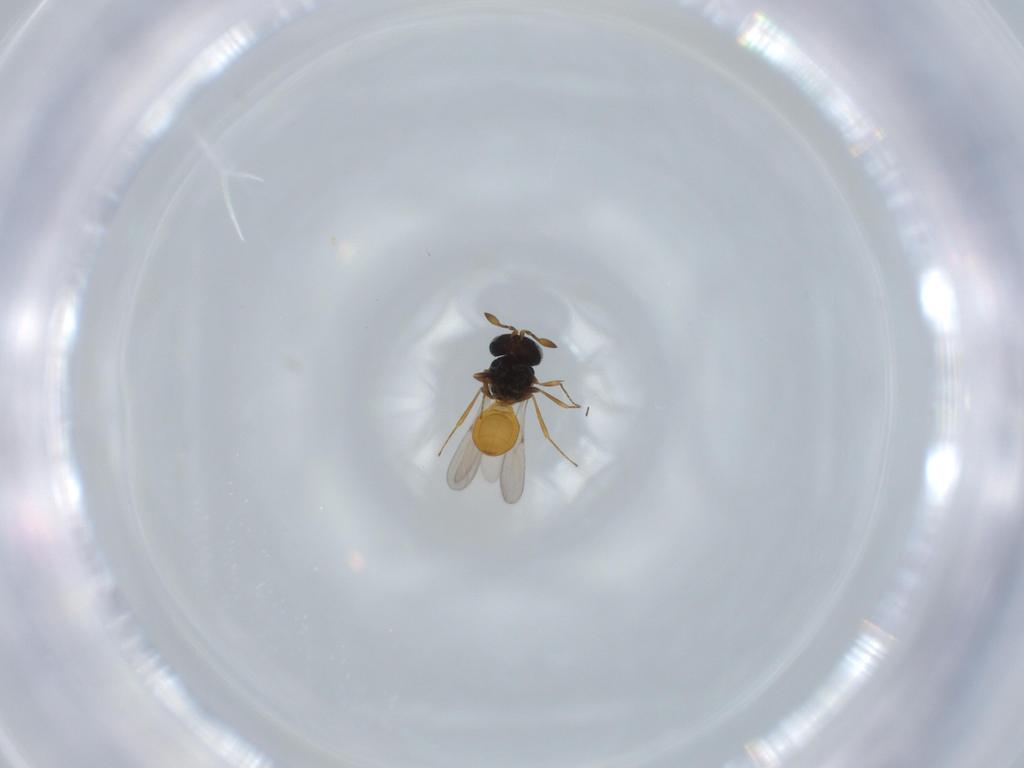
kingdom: Animalia
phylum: Arthropoda
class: Insecta
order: Hymenoptera
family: Scelionidae
